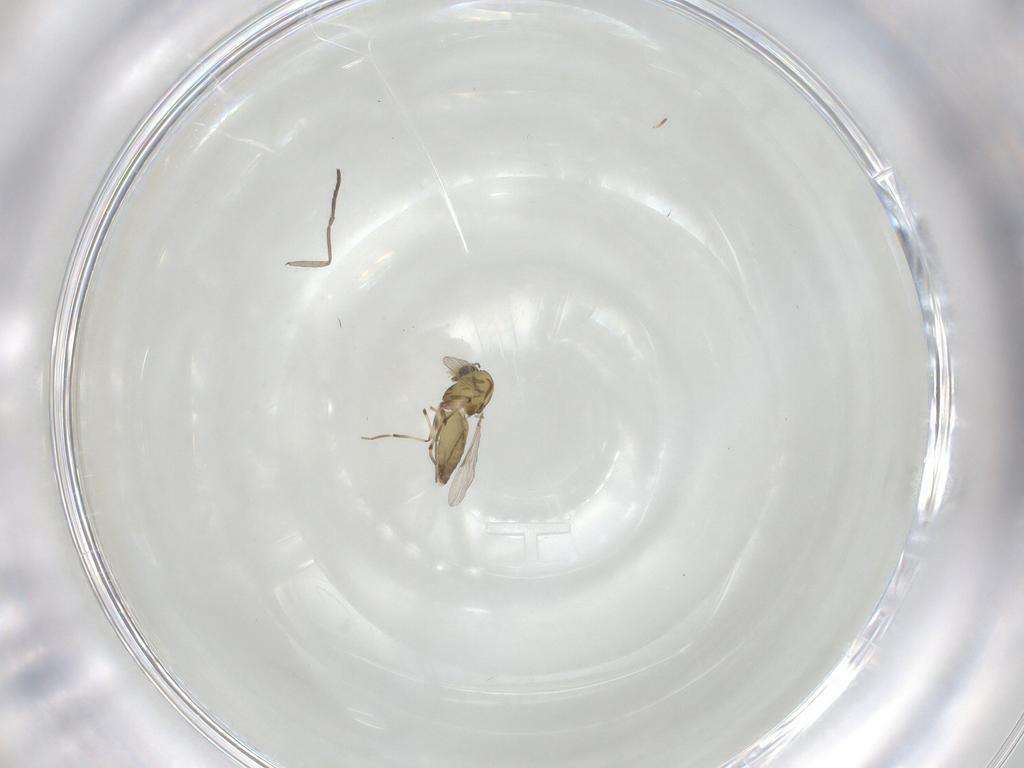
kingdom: Animalia
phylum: Arthropoda
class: Insecta
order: Diptera
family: Sciaridae
